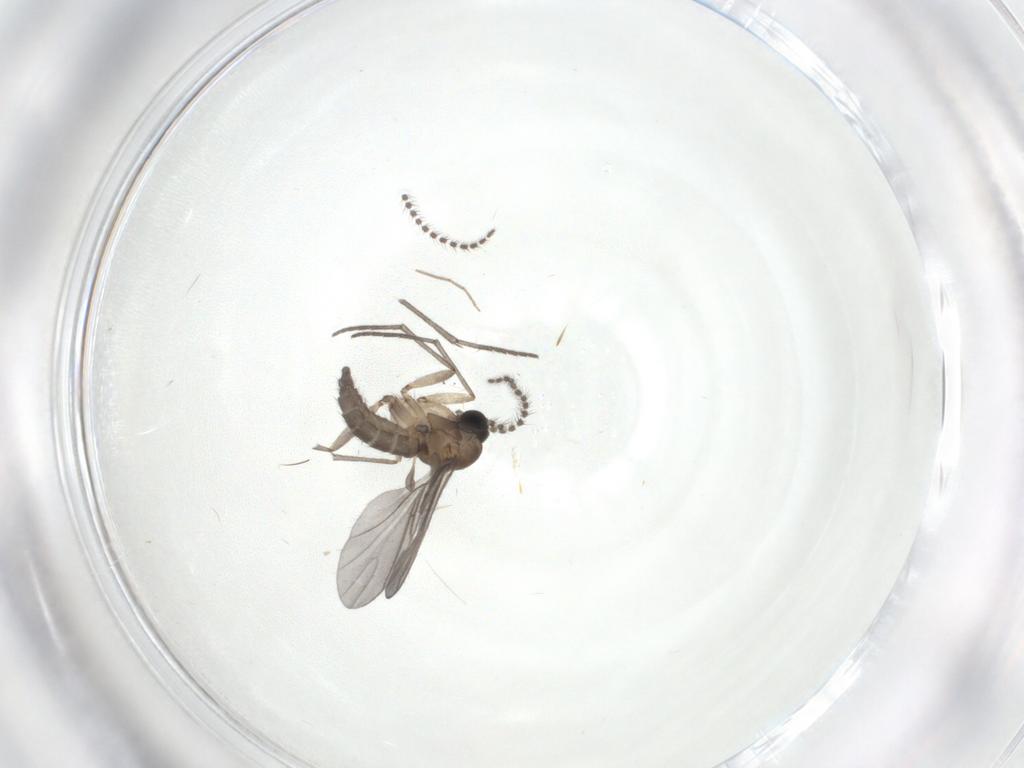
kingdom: Animalia
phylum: Arthropoda
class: Insecta
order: Diptera
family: Sciaridae
